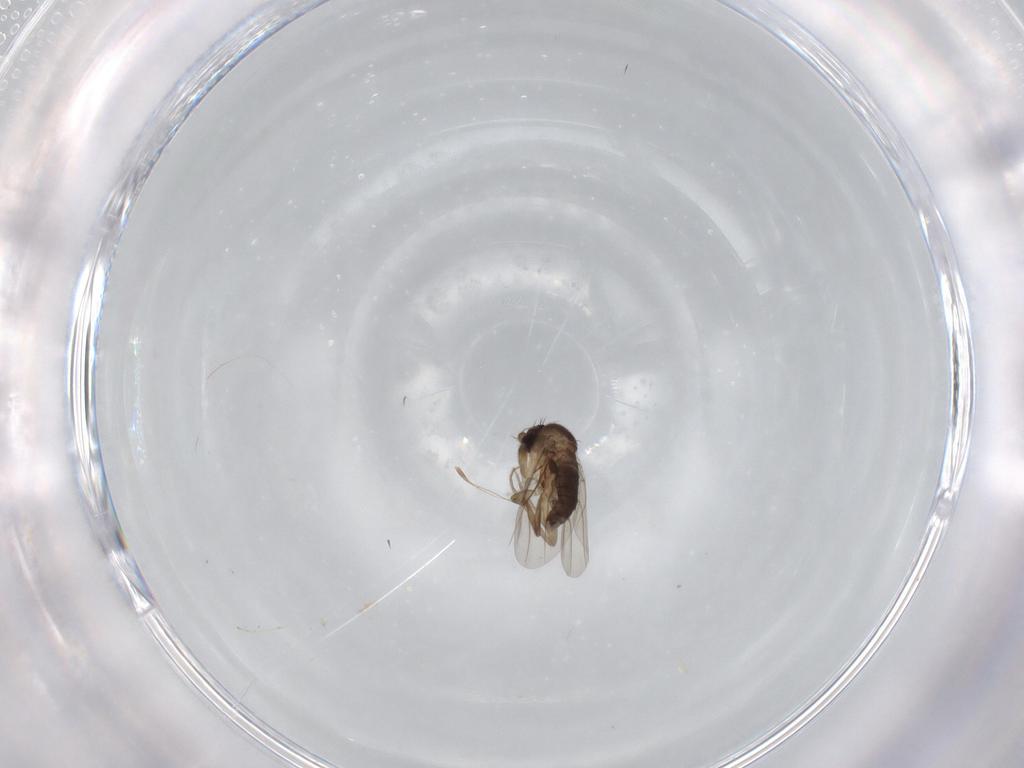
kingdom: Animalia
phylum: Arthropoda
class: Insecta
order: Diptera
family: Phoridae
